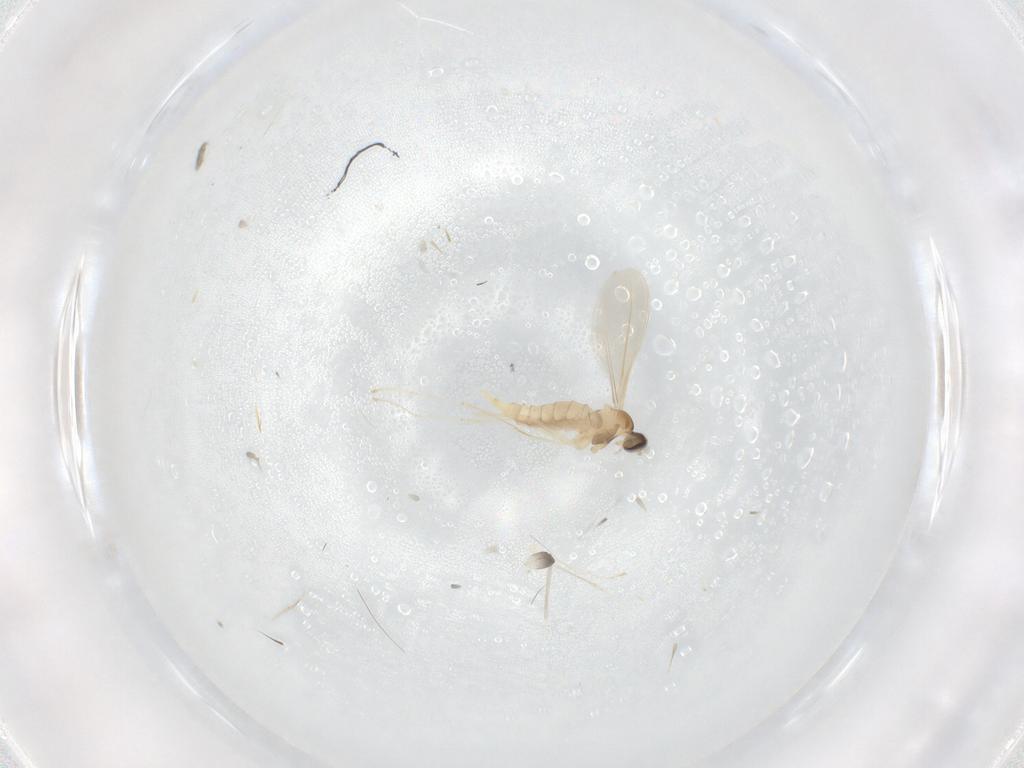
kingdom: Animalia
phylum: Arthropoda
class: Insecta
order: Diptera
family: Cecidomyiidae
